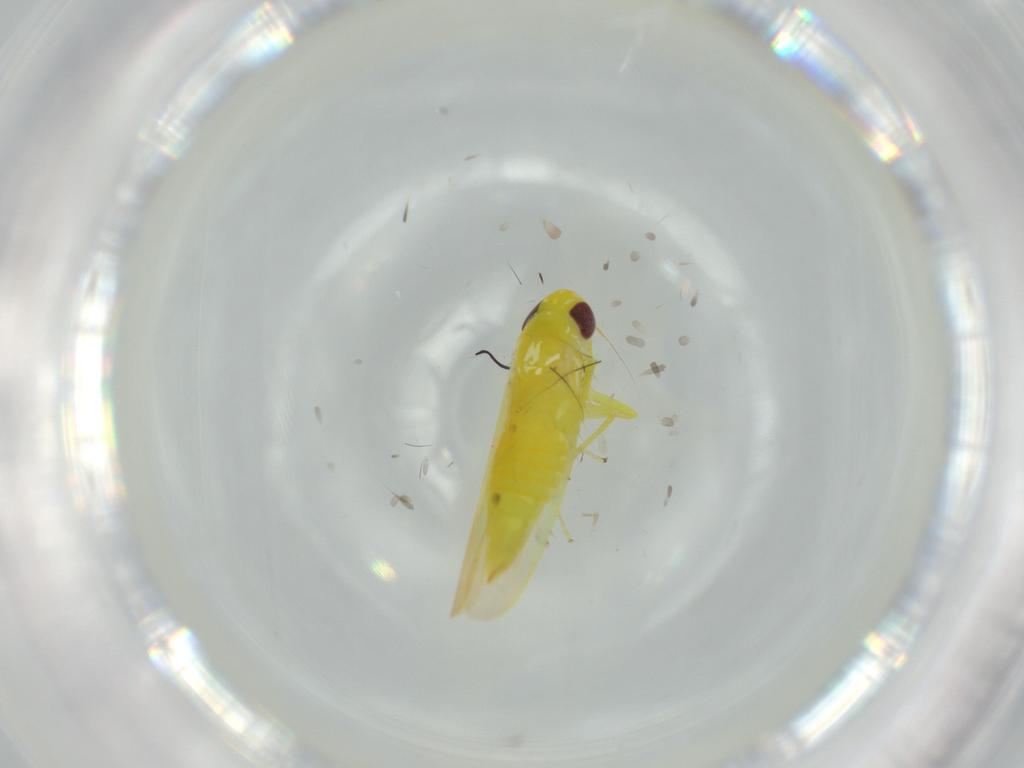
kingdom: Animalia
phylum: Arthropoda
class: Insecta
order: Hemiptera
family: Cicadellidae
